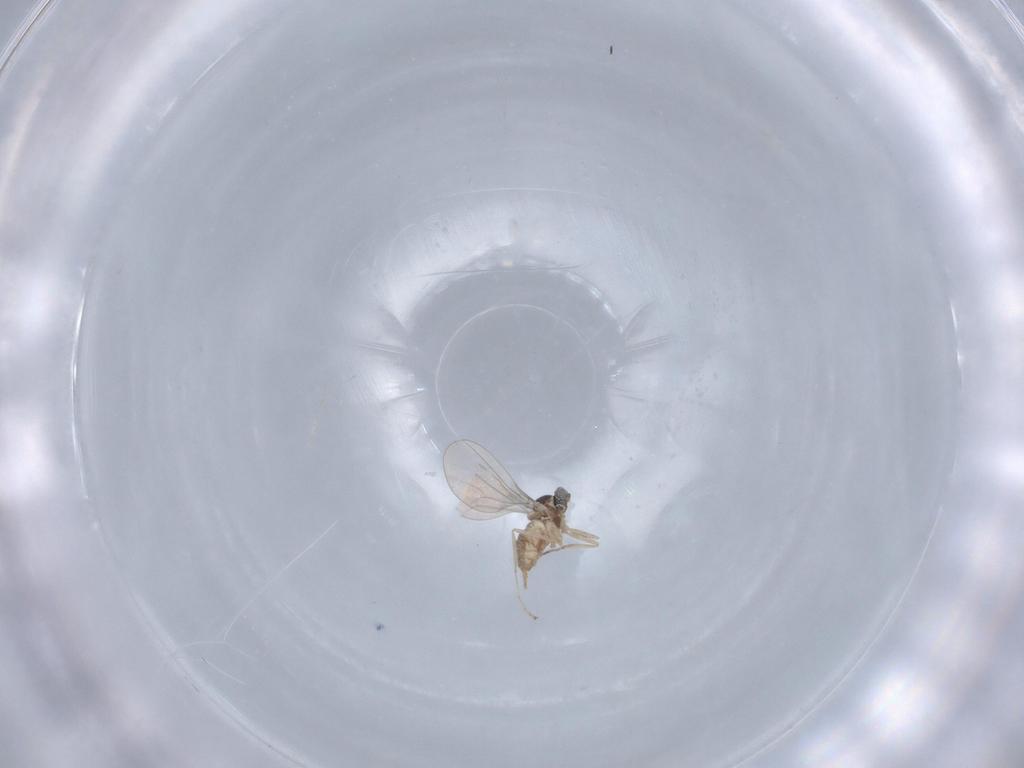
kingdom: Animalia
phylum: Arthropoda
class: Insecta
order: Diptera
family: Cecidomyiidae
